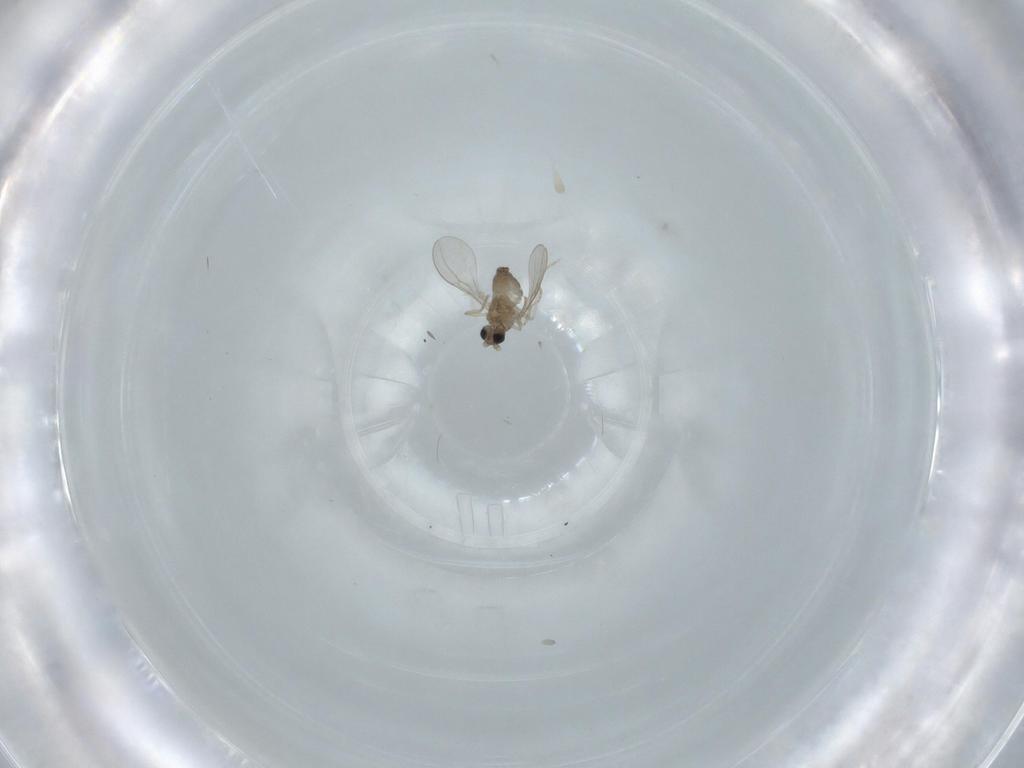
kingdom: Animalia
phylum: Arthropoda
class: Insecta
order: Diptera
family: Cecidomyiidae
